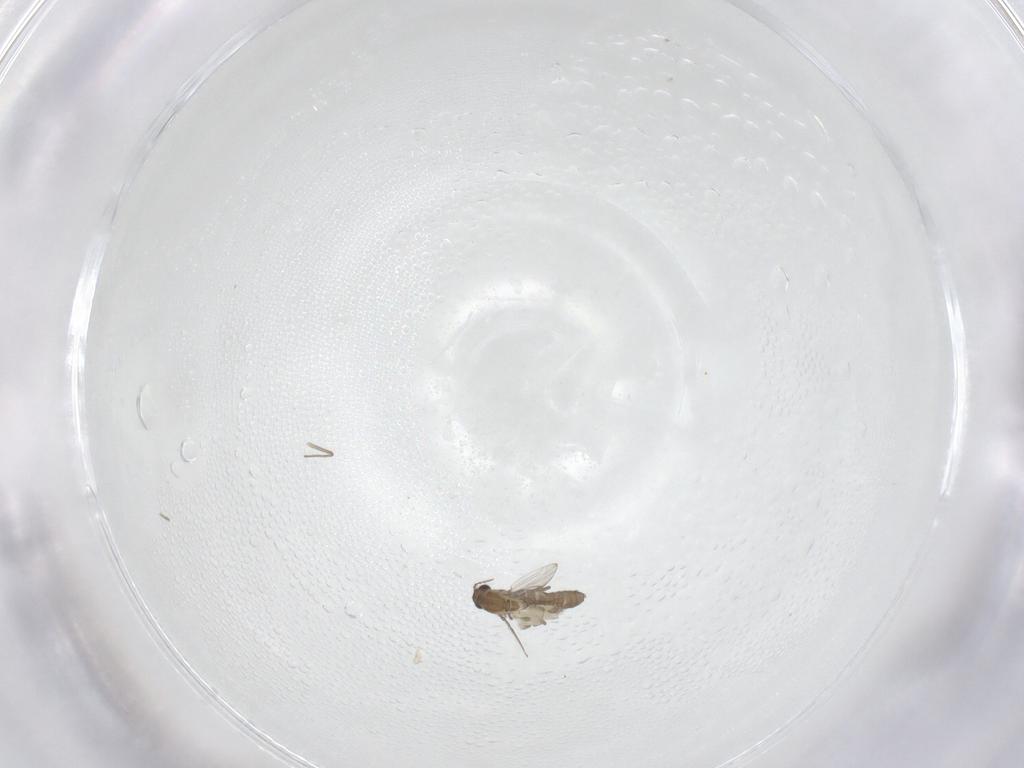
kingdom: Animalia
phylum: Arthropoda
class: Insecta
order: Diptera
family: Chironomidae
